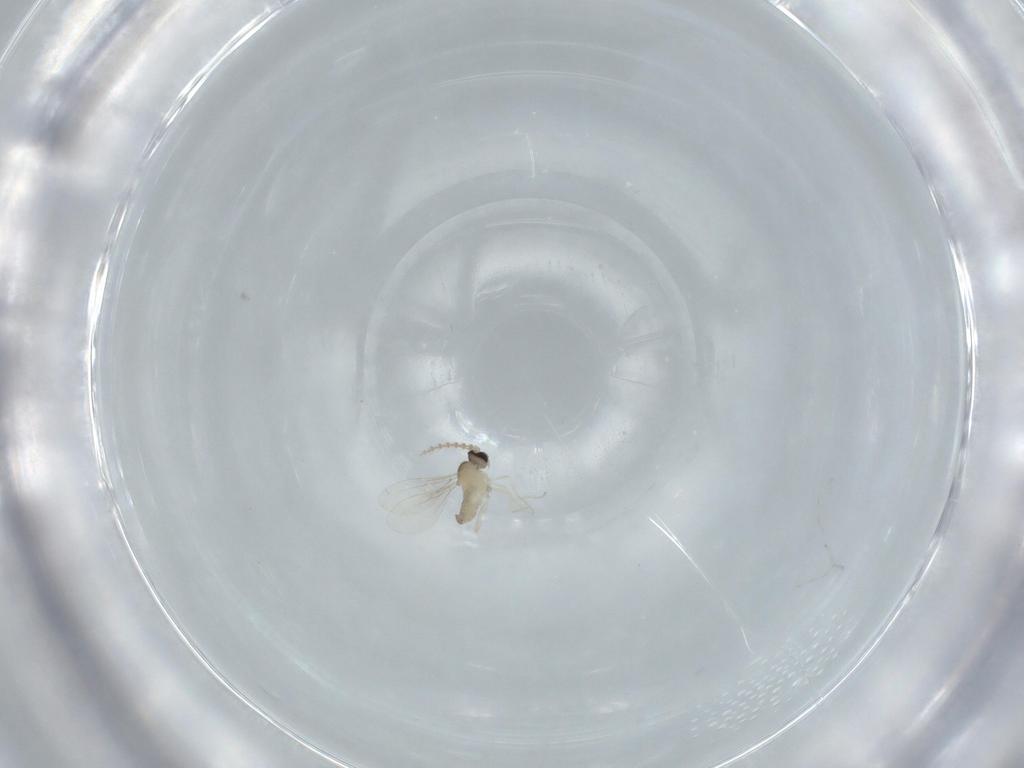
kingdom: Animalia
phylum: Arthropoda
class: Insecta
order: Diptera
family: Cecidomyiidae
